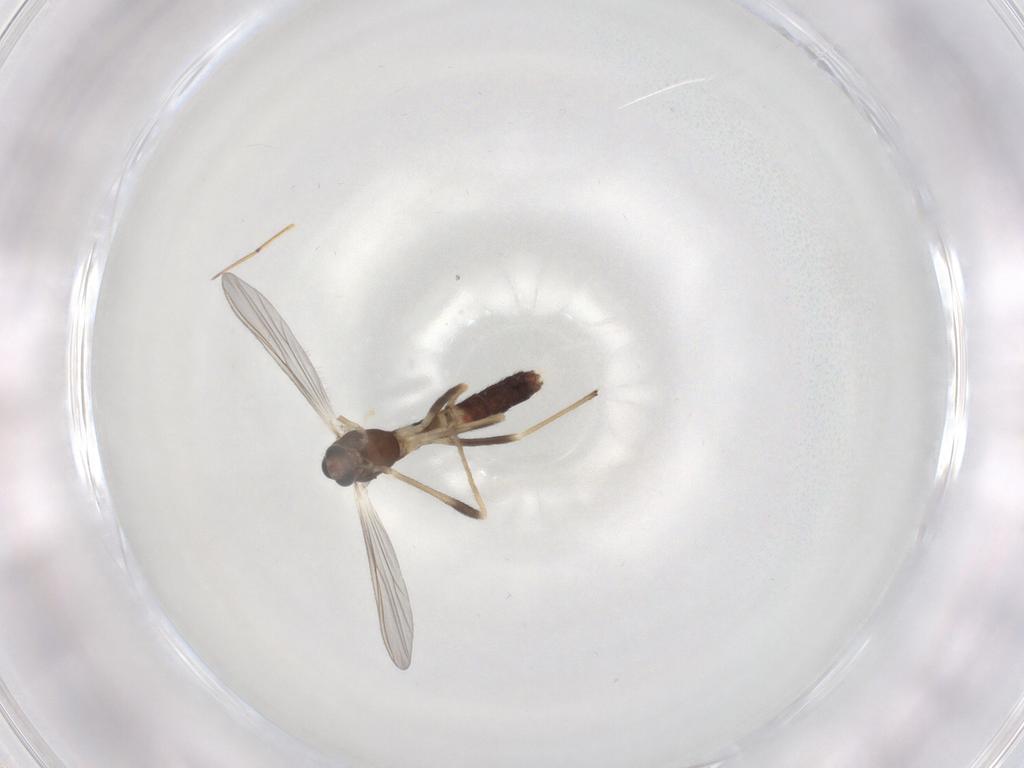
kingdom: Animalia
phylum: Arthropoda
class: Insecta
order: Diptera
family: Chironomidae
